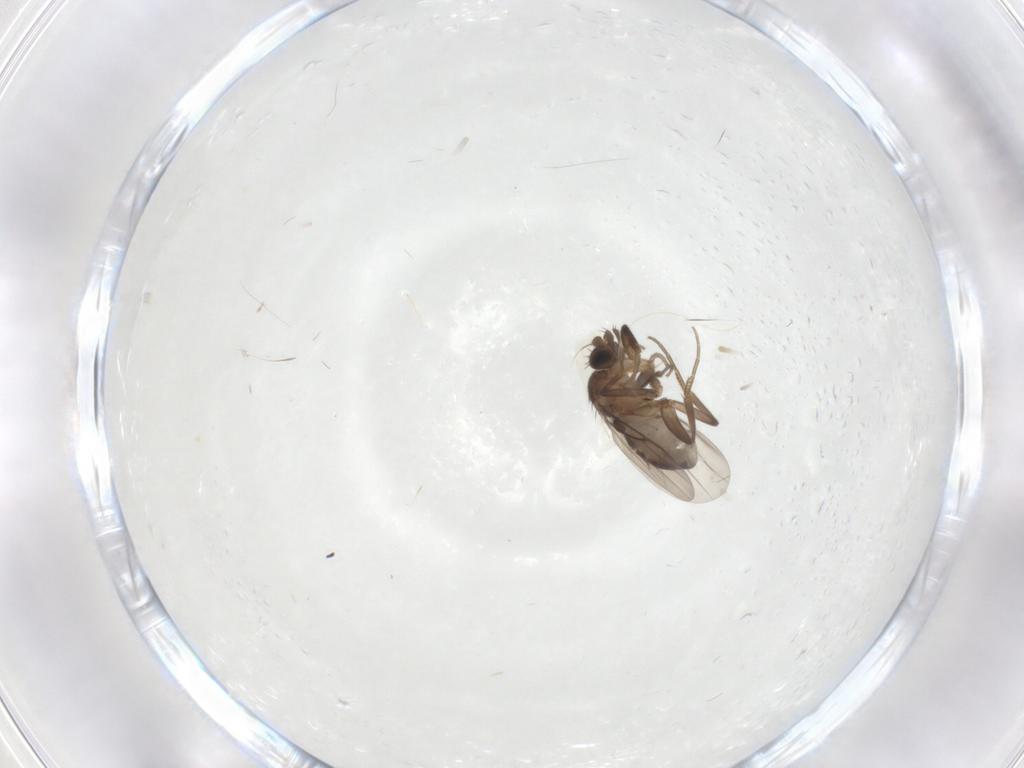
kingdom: Animalia
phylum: Arthropoda
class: Insecta
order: Diptera
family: Phoridae
